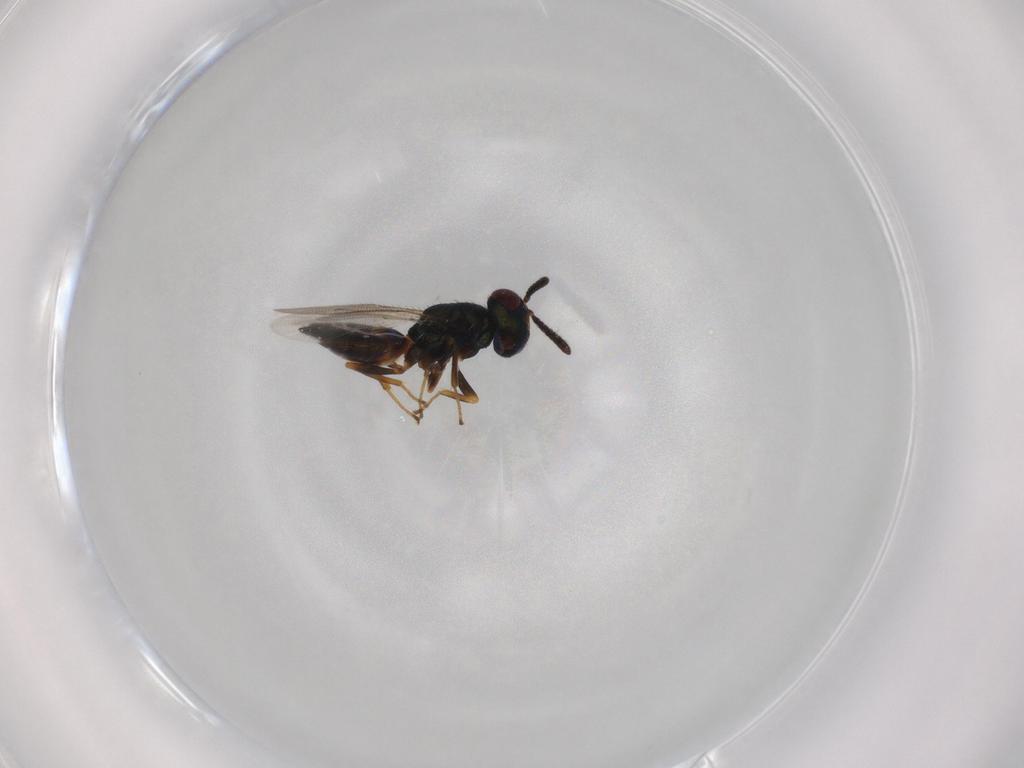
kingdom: Animalia
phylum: Arthropoda
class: Insecta
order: Hymenoptera
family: Pteromalidae
